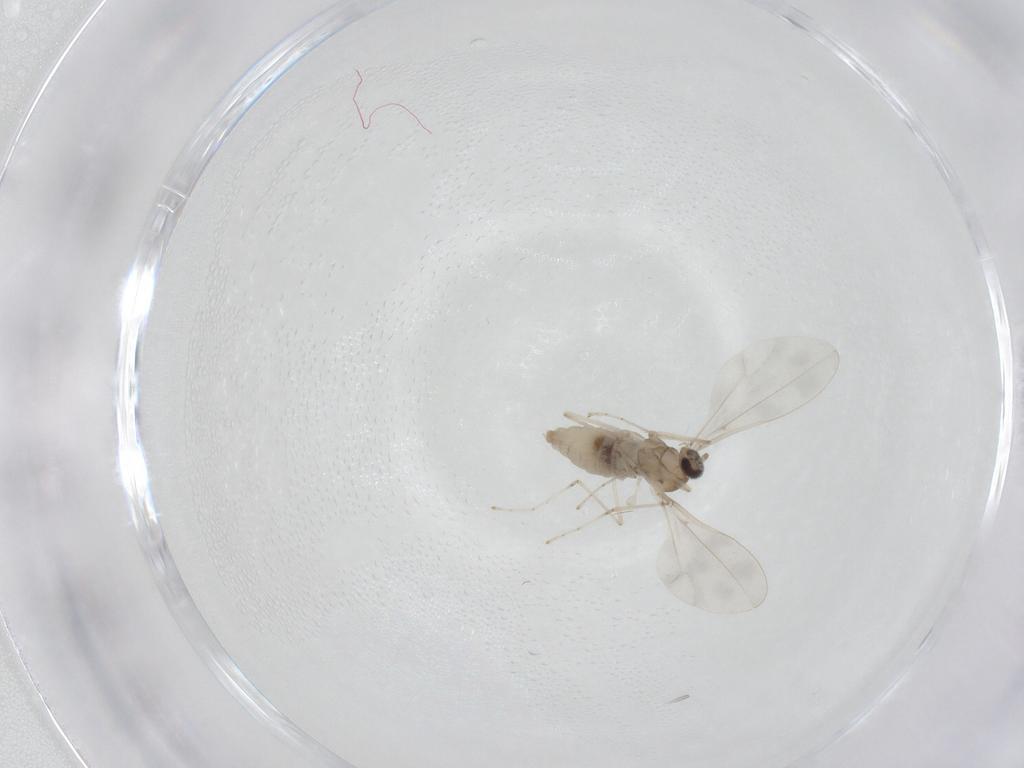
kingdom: Animalia
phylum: Arthropoda
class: Insecta
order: Diptera
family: Cecidomyiidae
